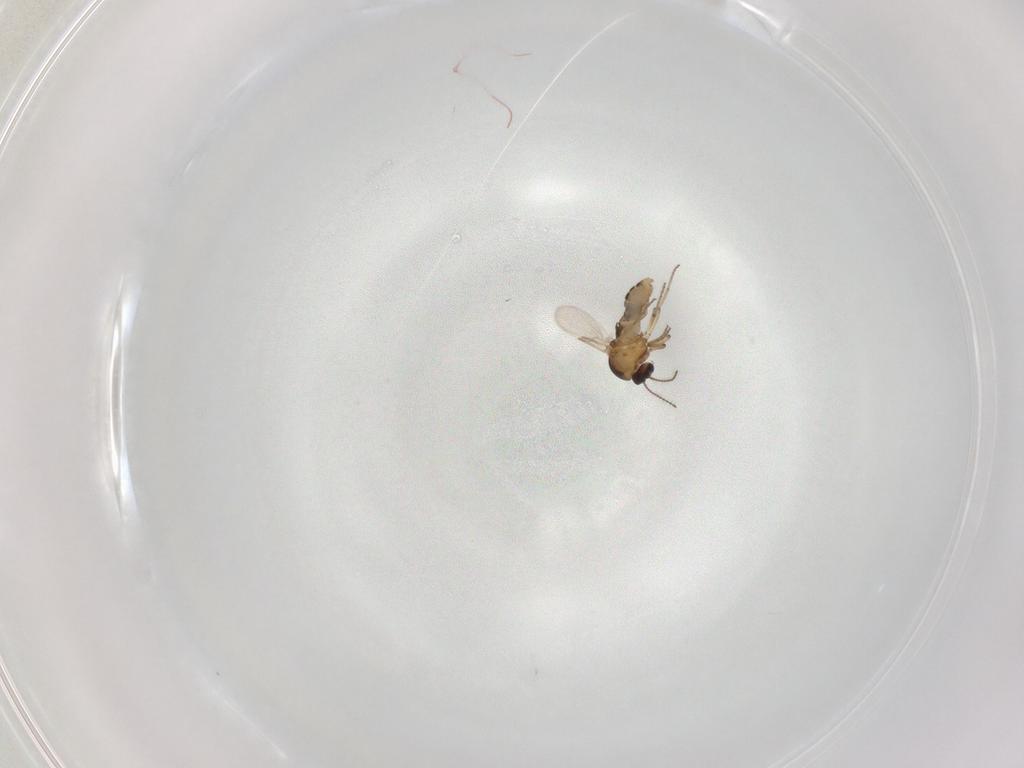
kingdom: Animalia
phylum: Arthropoda
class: Insecta
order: Diptera
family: Ceratopogonidae
